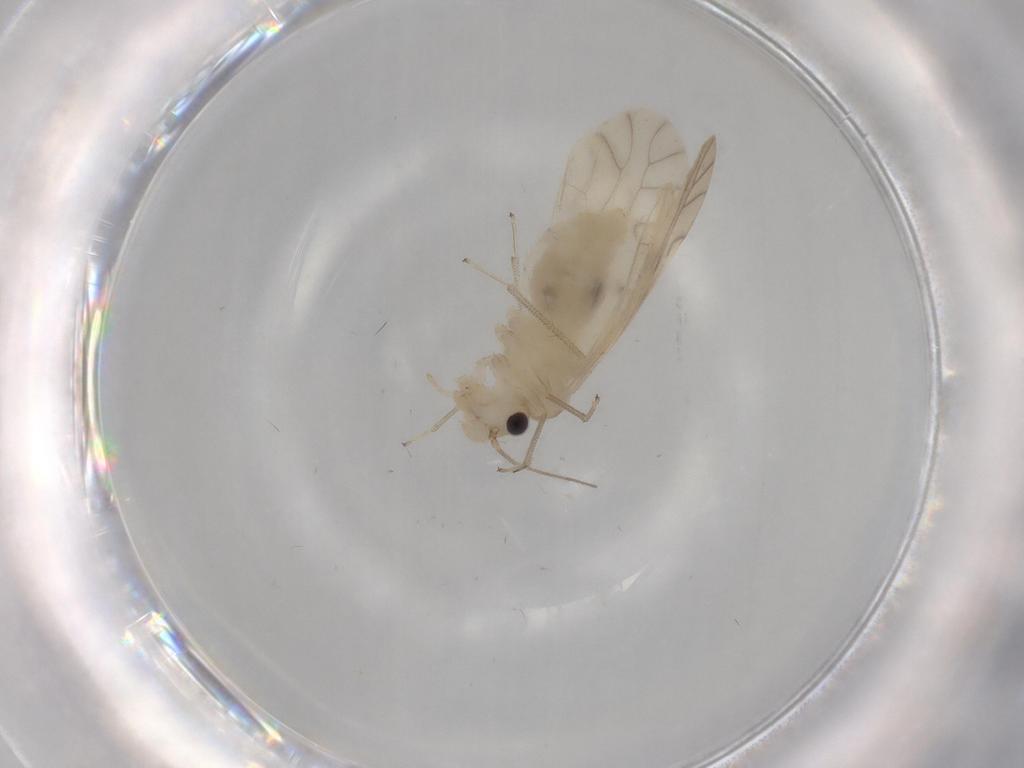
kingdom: Animalia
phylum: Arthropoda
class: Insecta
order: Psocodea
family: Caeciliusidae
